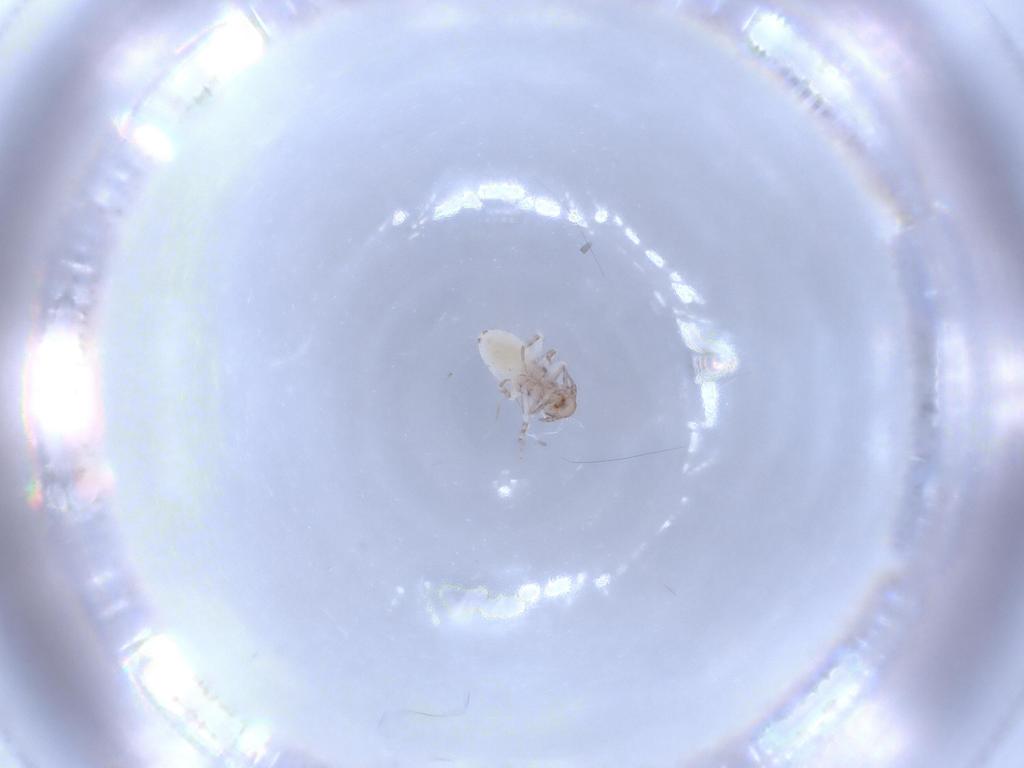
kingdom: Animalia
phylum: Arthropoda
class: Insecta
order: Psocodea
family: Lepidopsocidae
